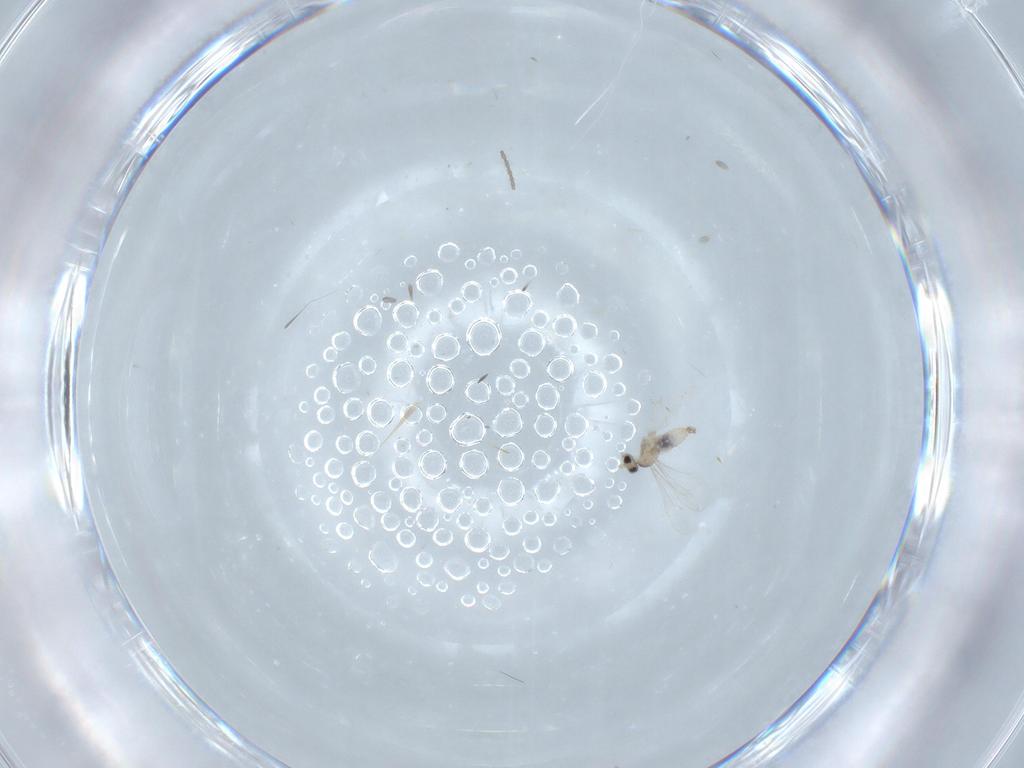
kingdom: Animalia
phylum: Arthropoda
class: Insecta
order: Diptera
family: Cecidomyiidae
